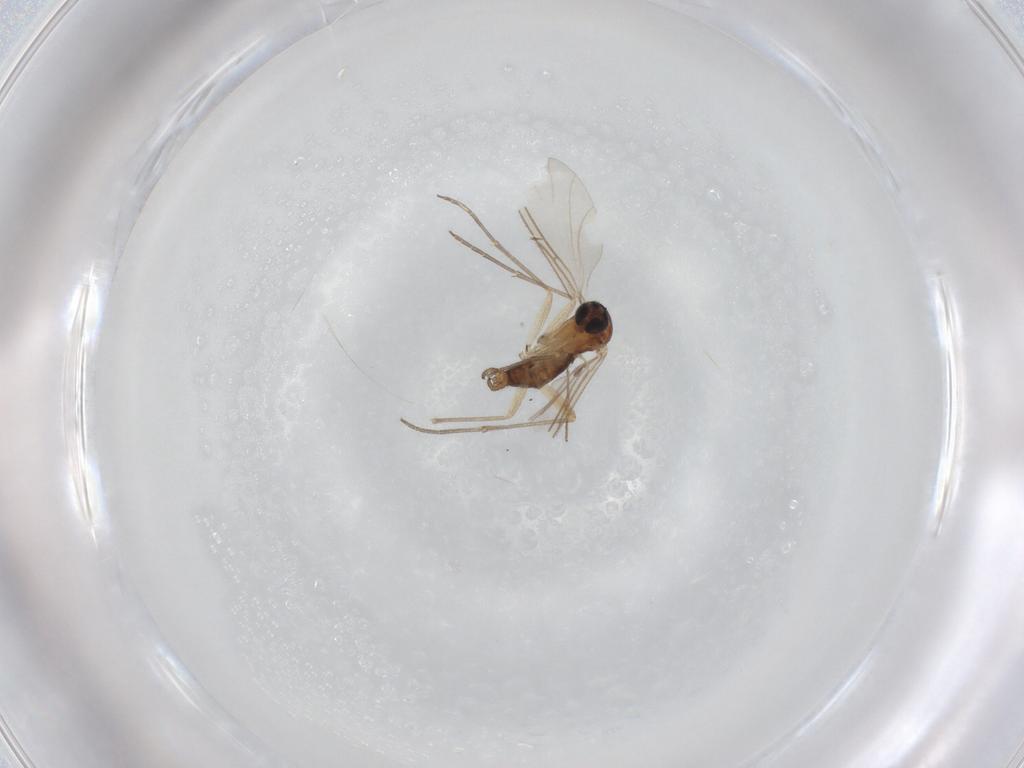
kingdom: Animalia
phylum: Arthropoda
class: Insecta
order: Diptera
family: Sciaridae
